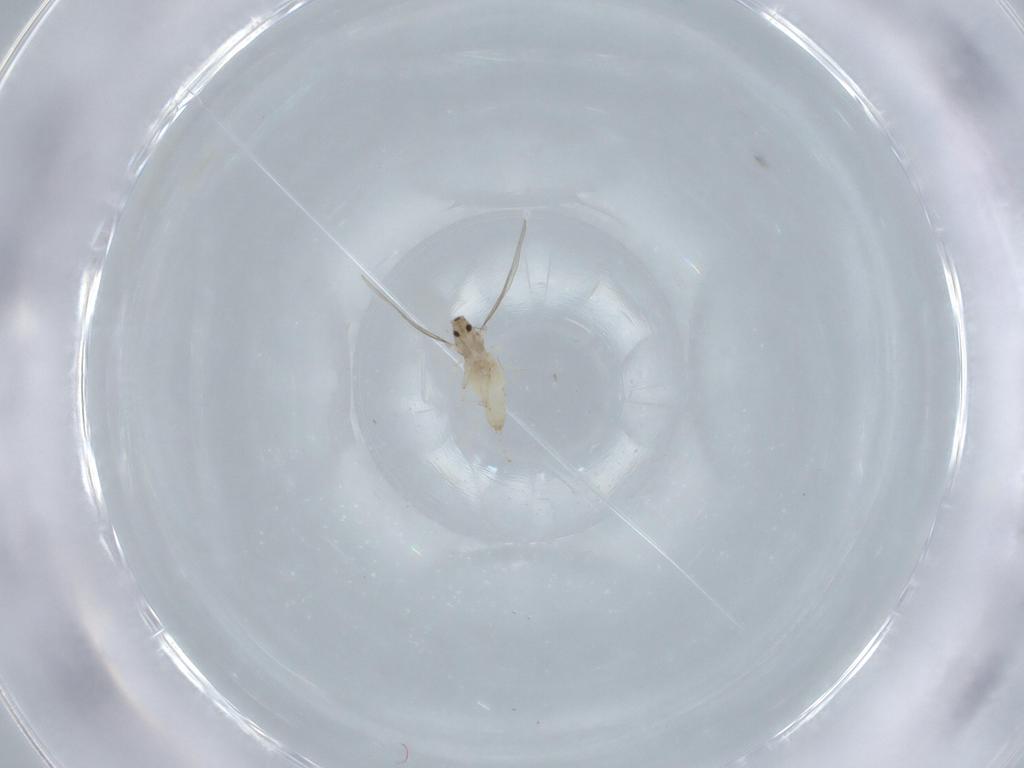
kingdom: Animalia
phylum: Arthropoda
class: Insecta
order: Diptera
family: Cecidomyiidae
